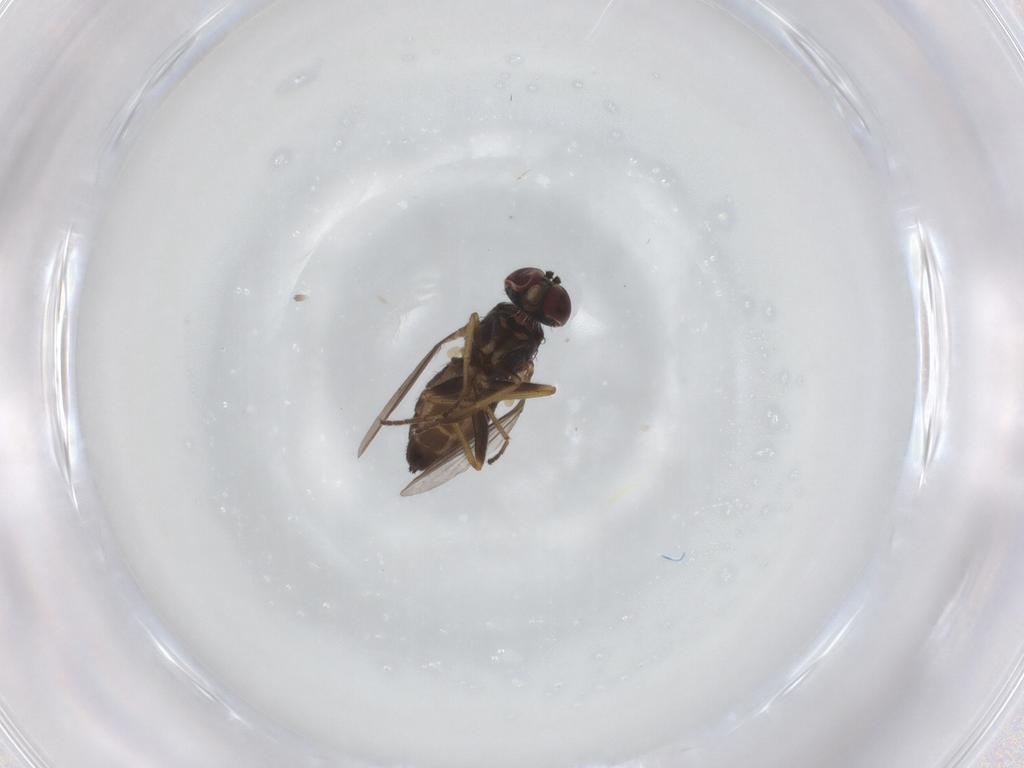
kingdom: Animalia
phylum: Arthropoda
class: Insecta
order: Diptera
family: Dolichopodidae
